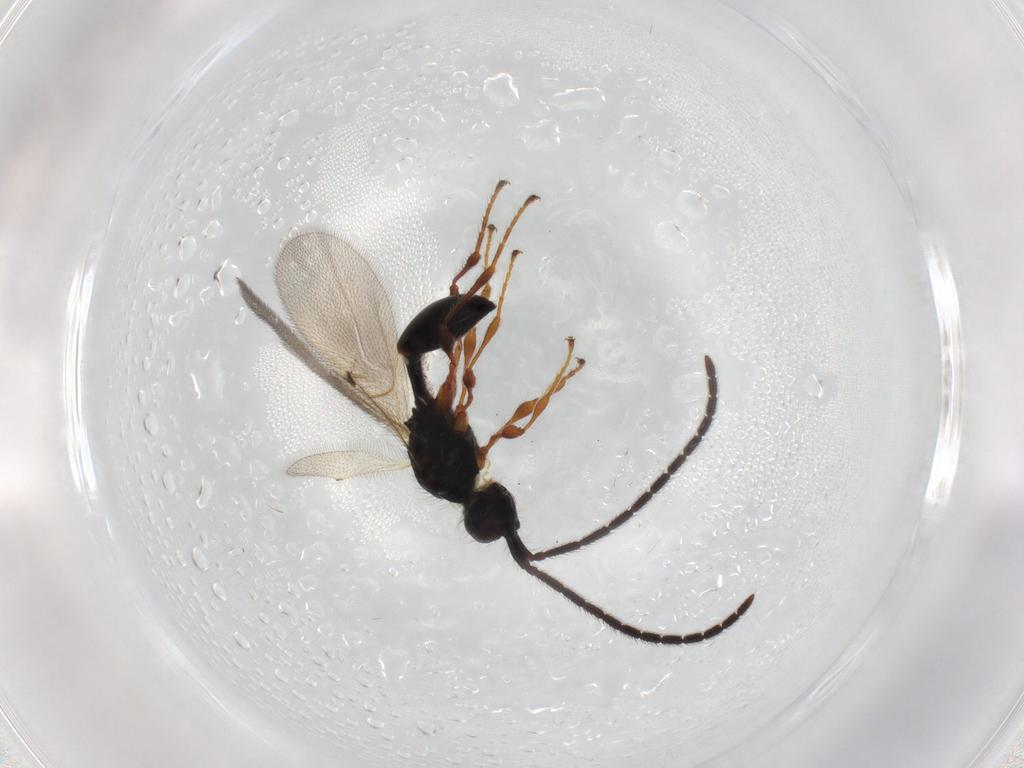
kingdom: Animalia
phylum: Arthropoda
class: Insecta
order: Hymenoptera
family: Diapriidae
